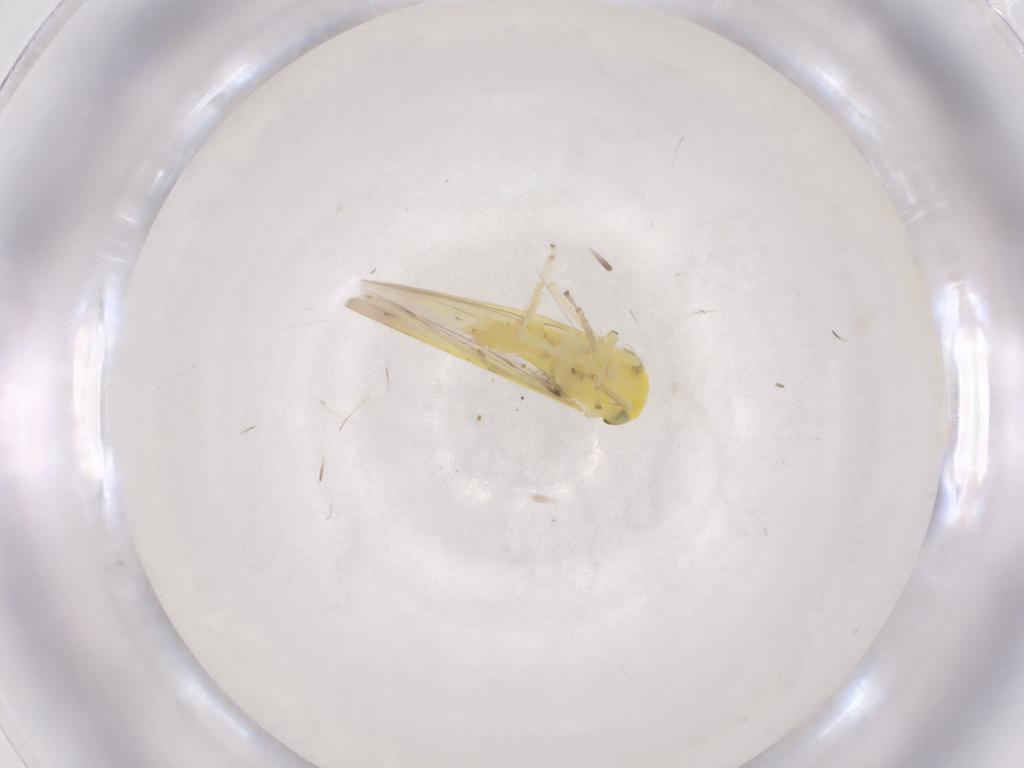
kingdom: Animalia
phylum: Arthropoda
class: Insecta
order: Hemiptera
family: Cicadellidae
